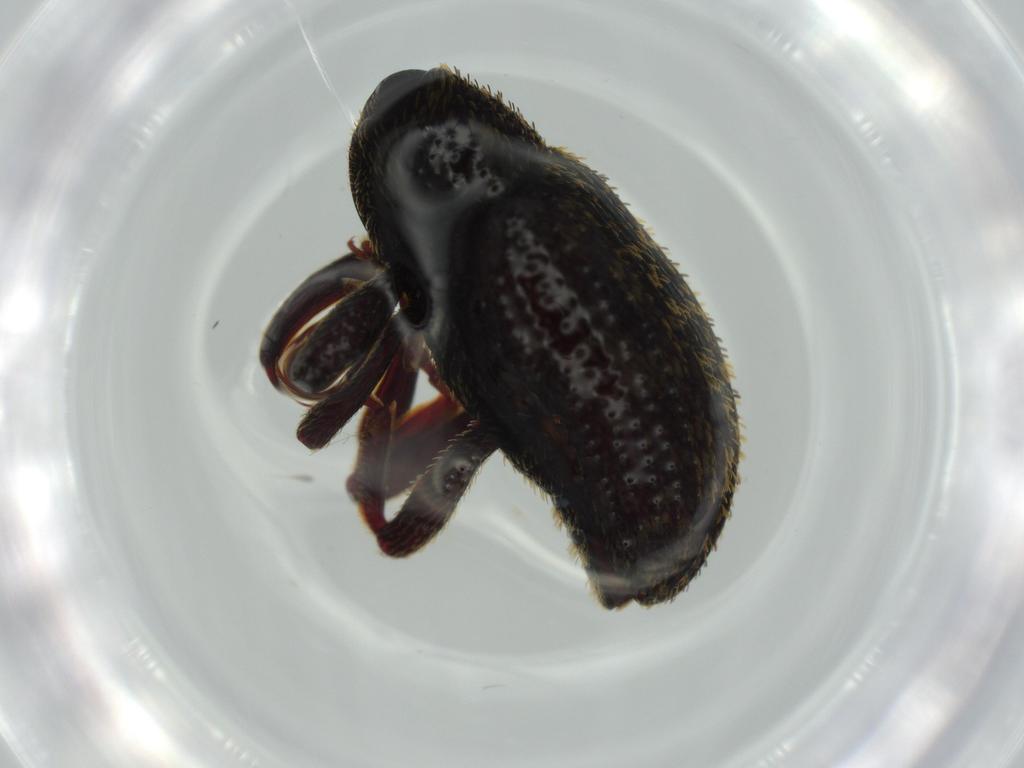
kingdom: Animalia
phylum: Arthropoda
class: Insecta
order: Coleoptera
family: Curculionidae
